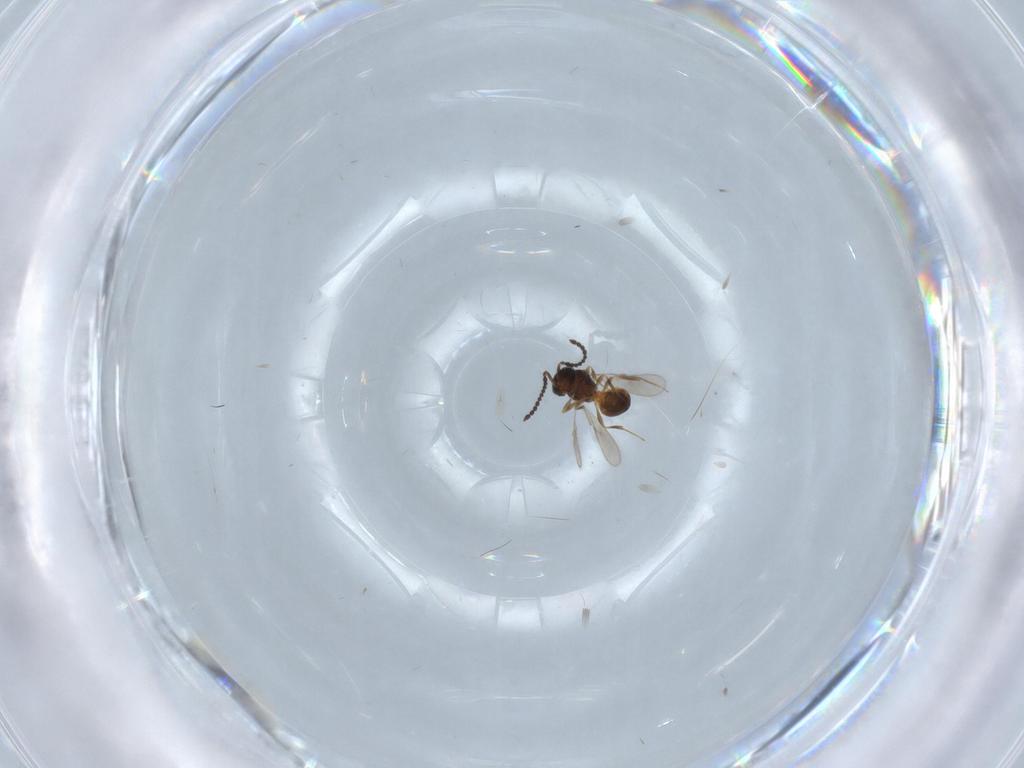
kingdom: Animalia
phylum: Arthropoda
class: Insecta
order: Hymenoptera
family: Scelionidae
